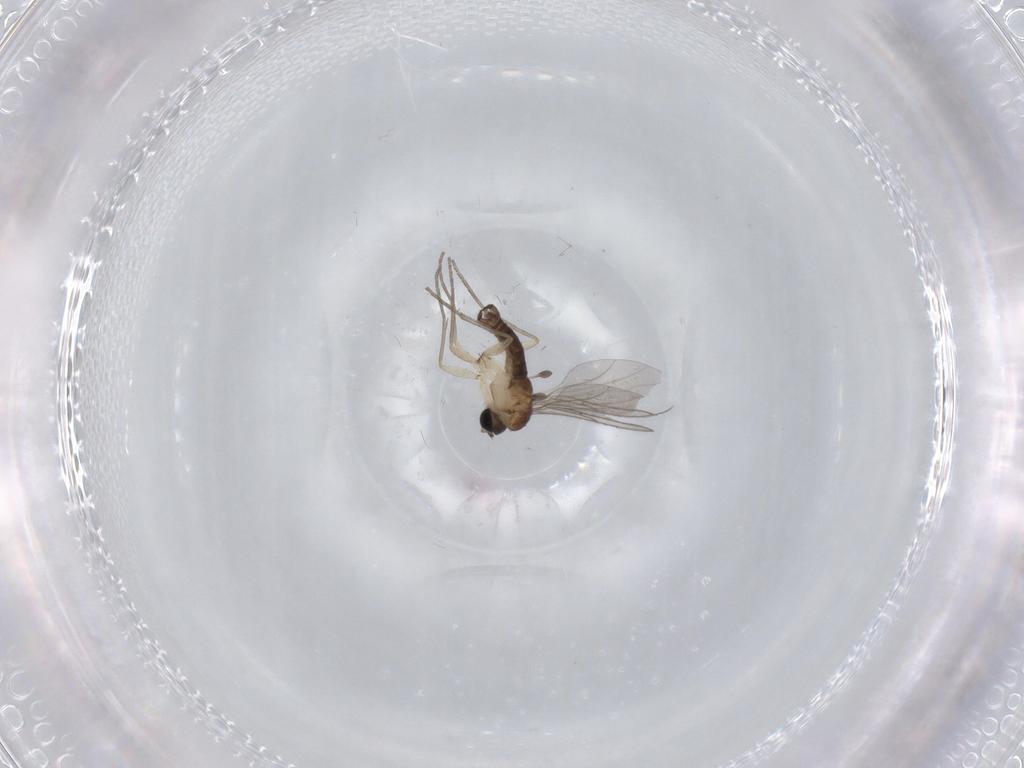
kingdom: Animalia
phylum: Arthropoda
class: Insecta
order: Diptera
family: Sciaridae
